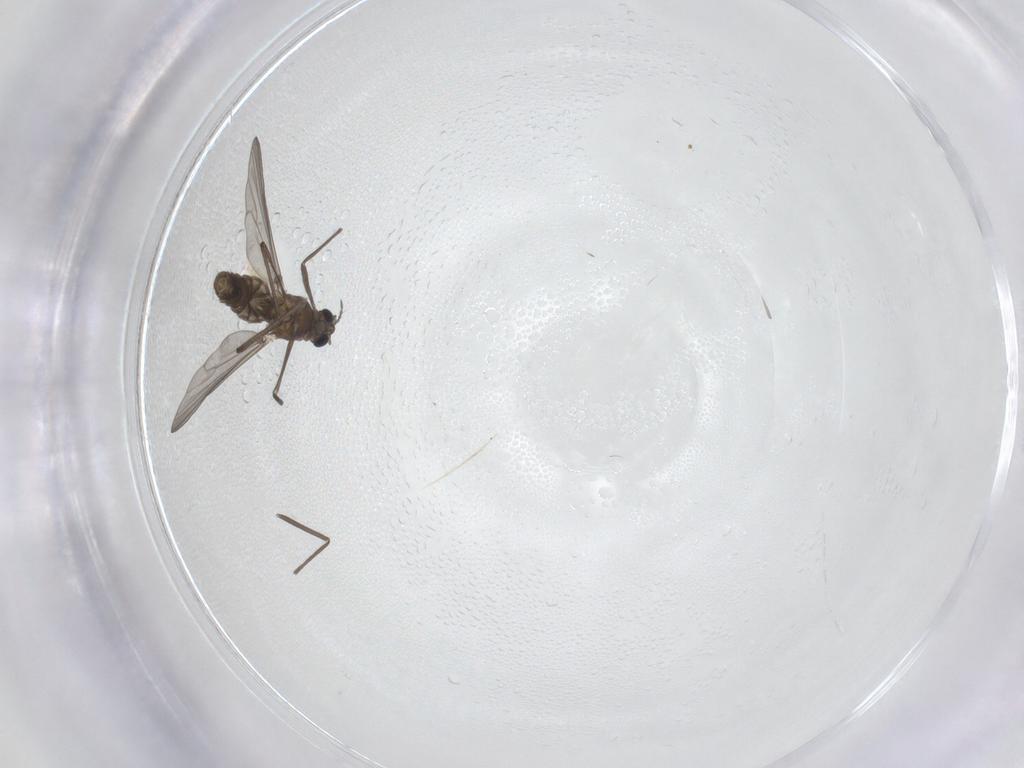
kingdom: Animalia
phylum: Arthropoda
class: Insecta
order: Diptera
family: Chironomidae
